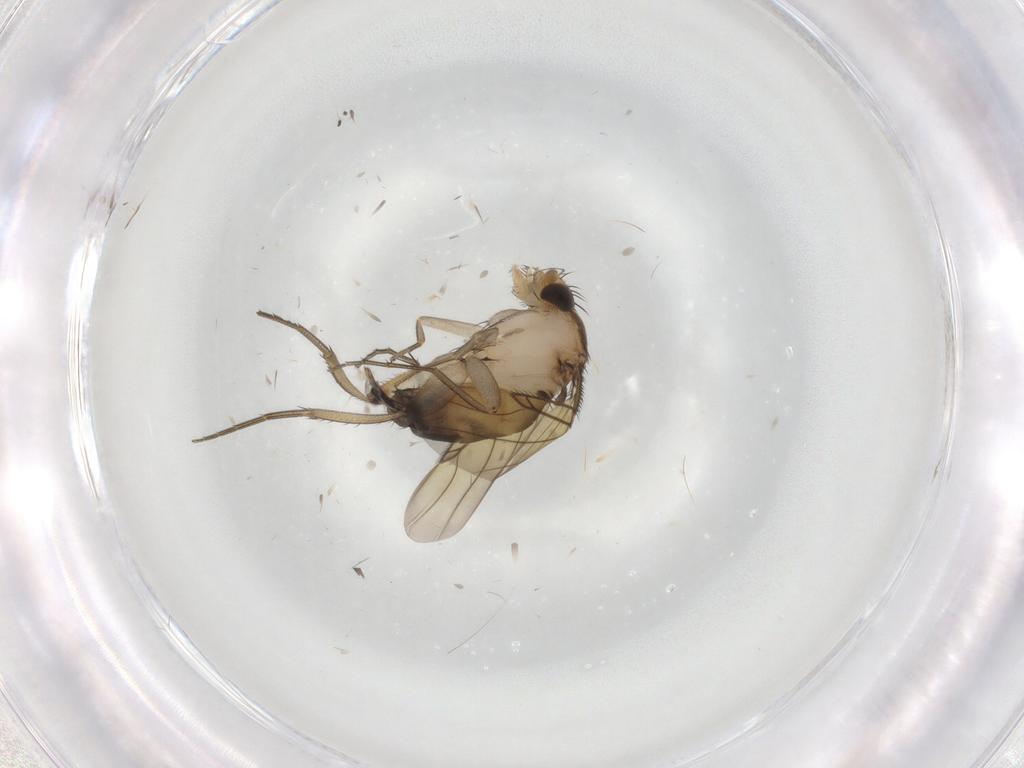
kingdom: Animalia
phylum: Arthropoda
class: Insecta
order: Diptera
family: Phoridae
